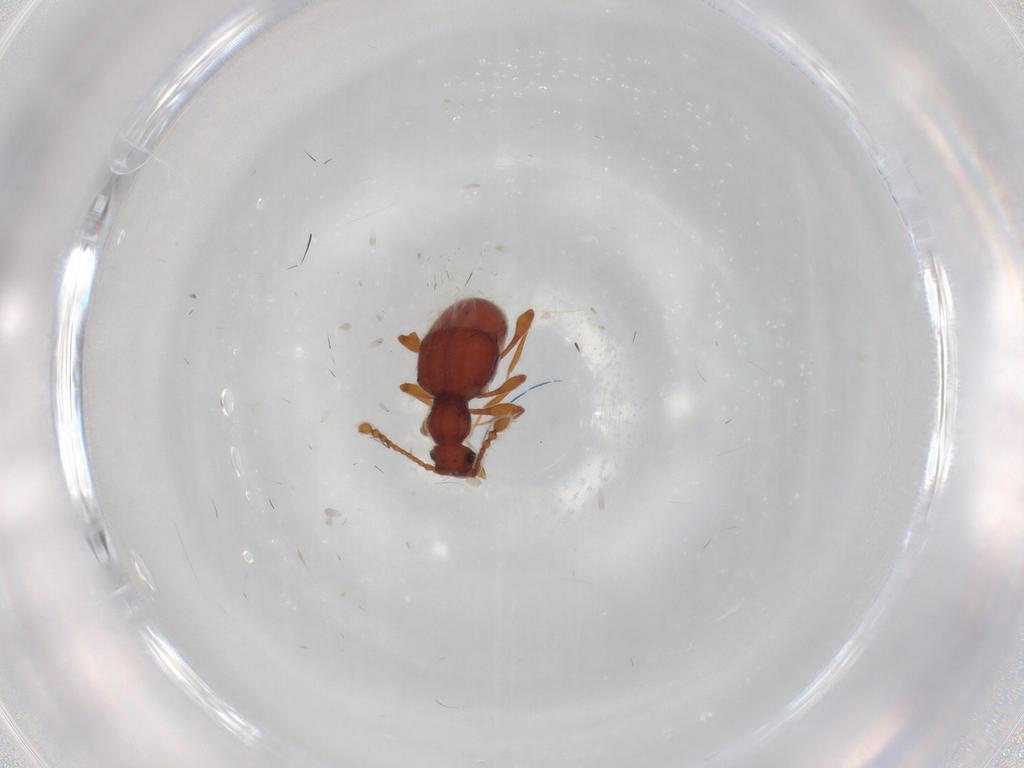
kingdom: Animalia
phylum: Arthropoda
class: Insecta
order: Coleoptera
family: Staphylinidae
